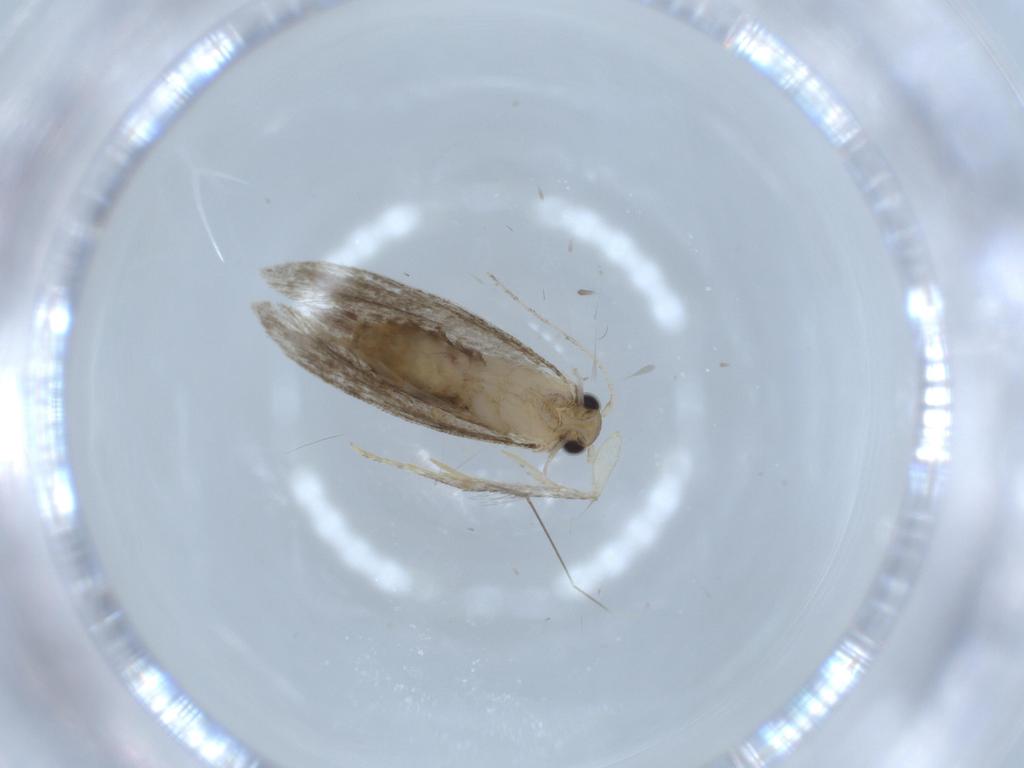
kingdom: Animalia
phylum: Arthropoda
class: Insecta
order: Lepidoptera
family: Tineidae
